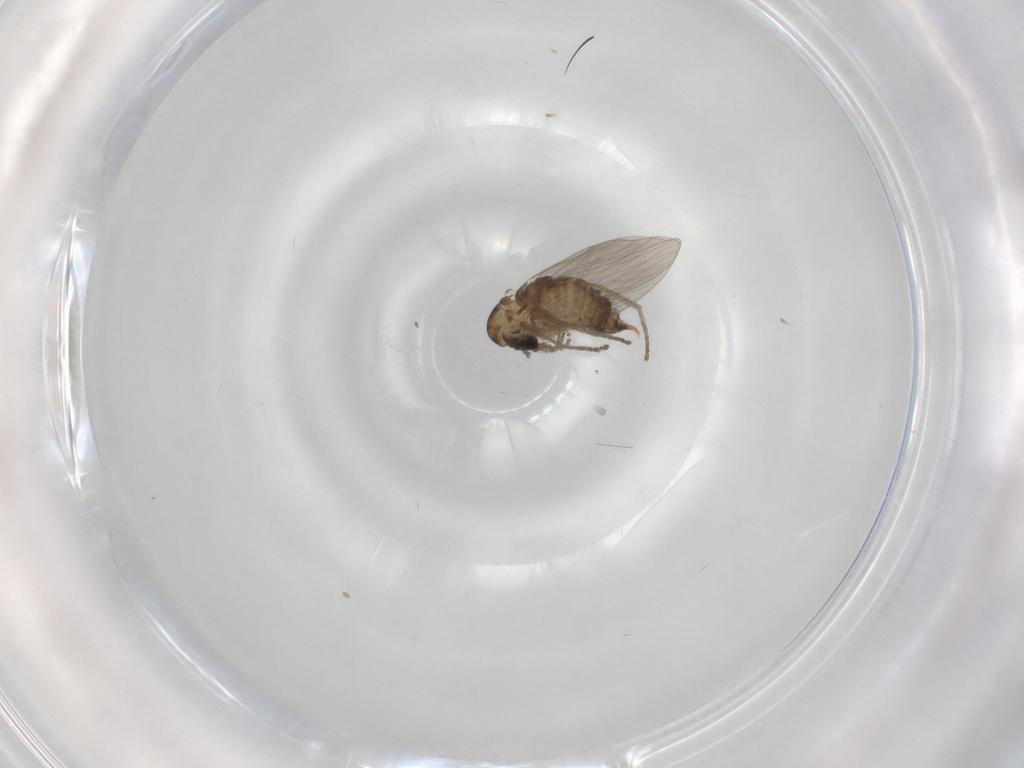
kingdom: Animalia
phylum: Arthropoda
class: Insecta
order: Diptera
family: Psychodidae
